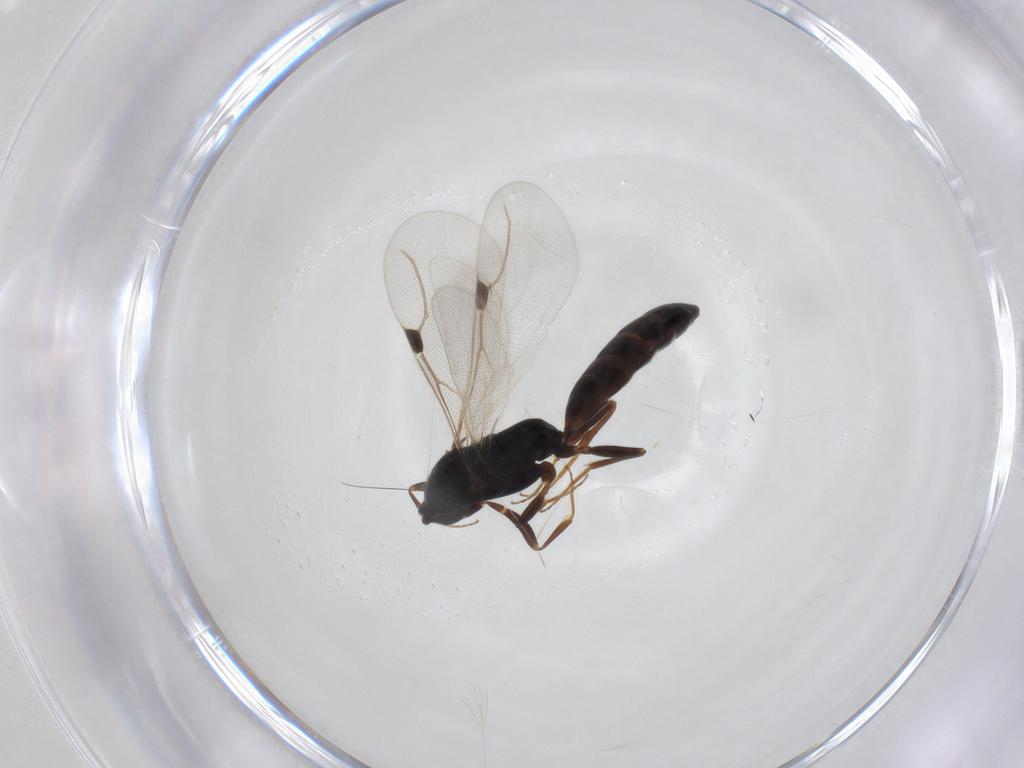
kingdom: Animalia
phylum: Arthropoda
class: Insecta
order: Hymenoptera
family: Bethylidae
